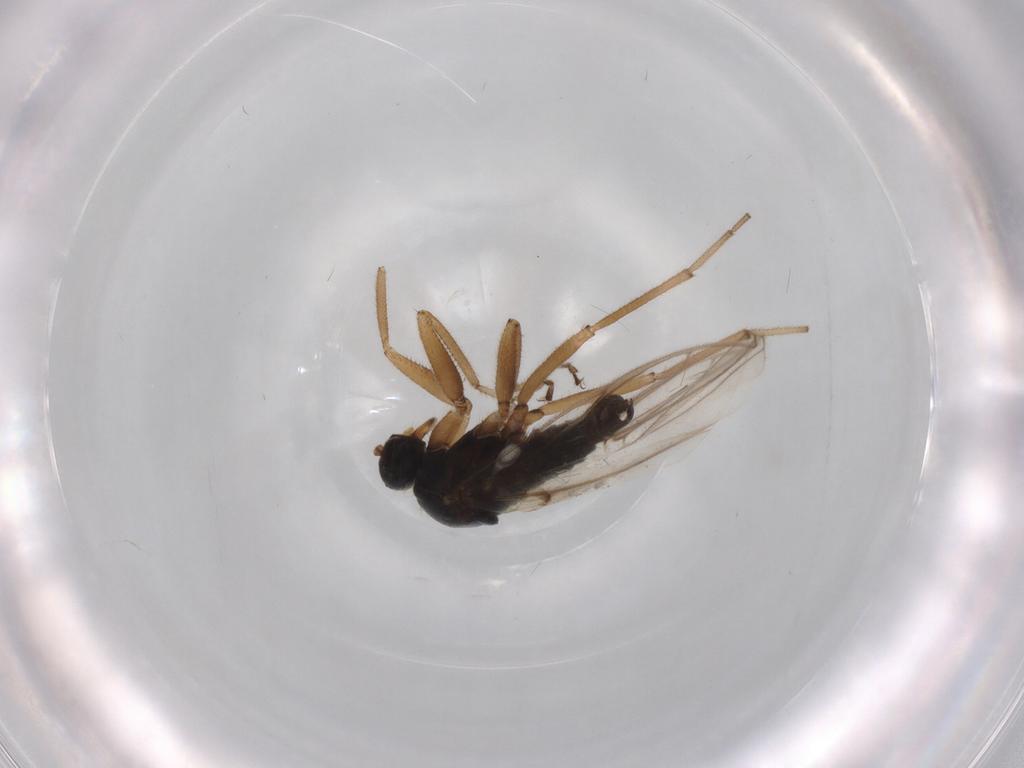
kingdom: Animalia
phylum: Arthropoda
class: Insecta
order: Diptera
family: Hybotidae
